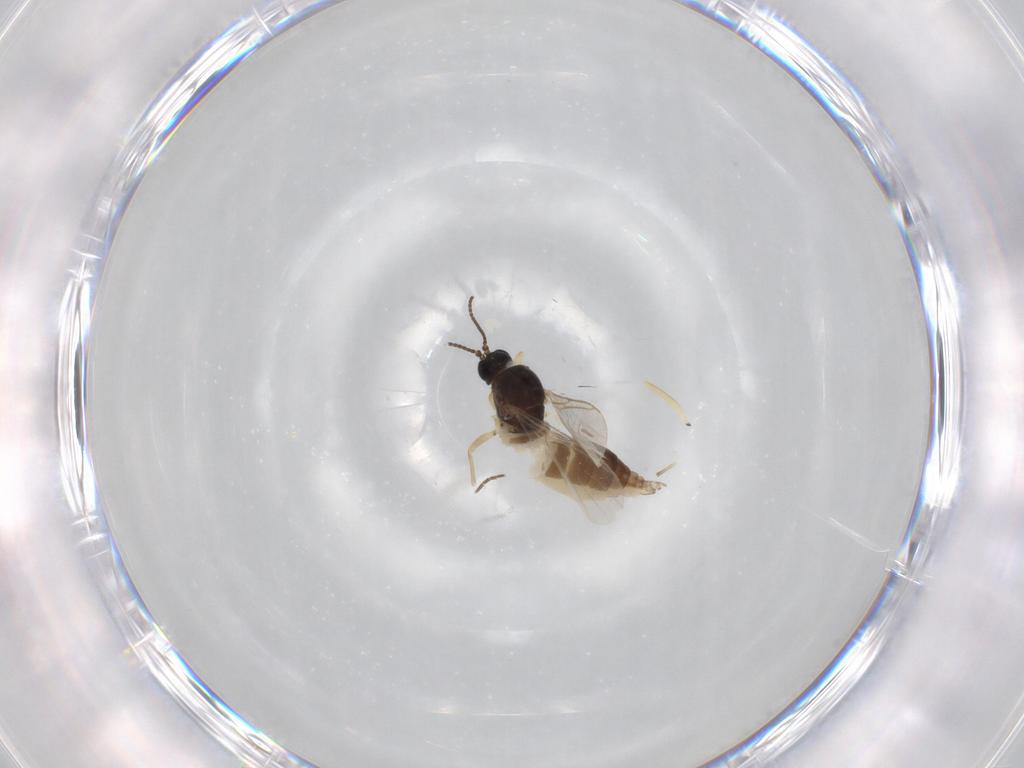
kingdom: Animalia
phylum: Arthropoda
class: Insecta
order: Diptera
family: Sciaridae
